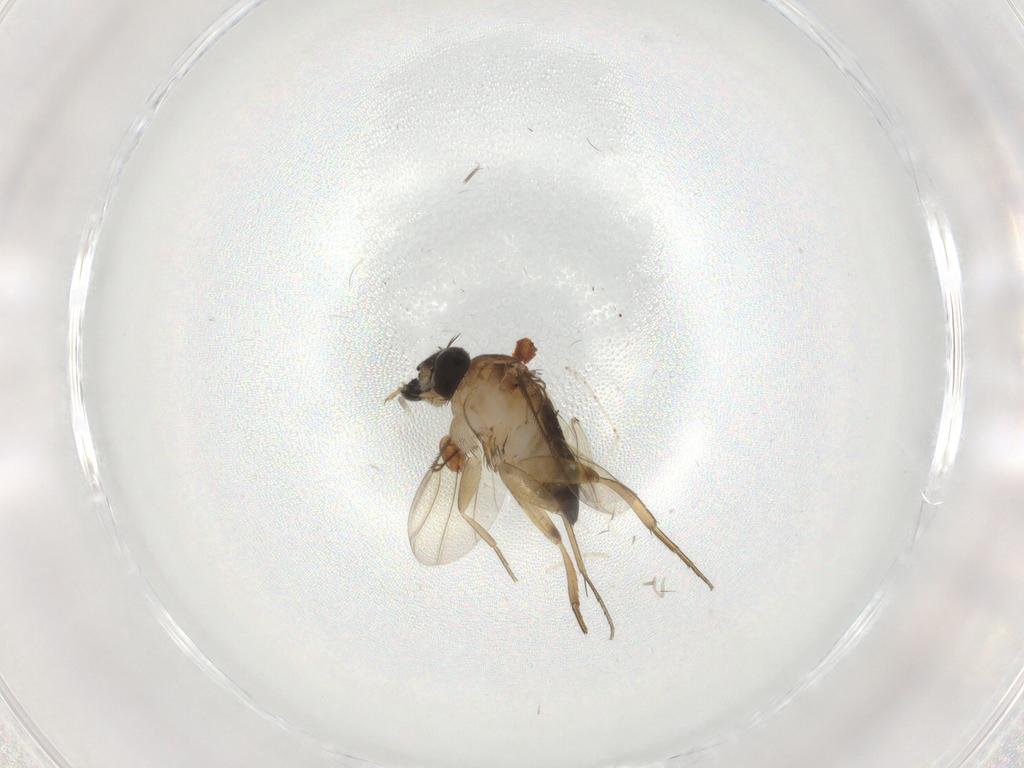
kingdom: Animalia
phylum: Arthropoda
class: Insecta
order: Diptera
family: Phoridae
